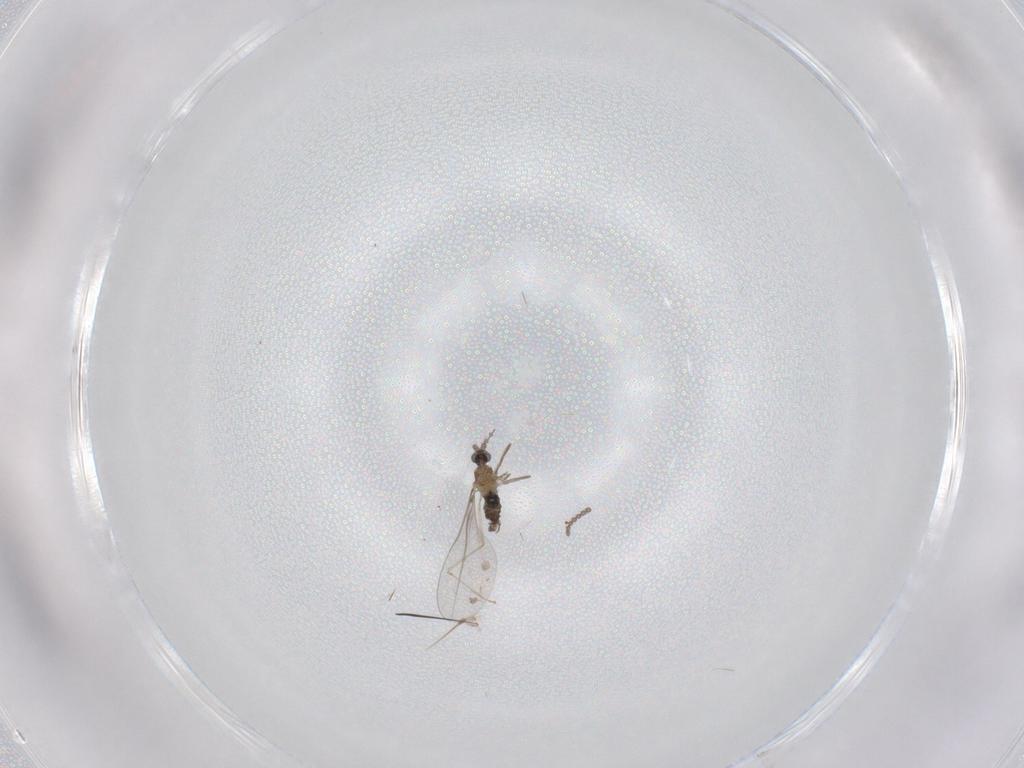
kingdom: Animalia
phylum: Arthropoda
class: Insecta
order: Diptera
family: Cecidomyiidae
